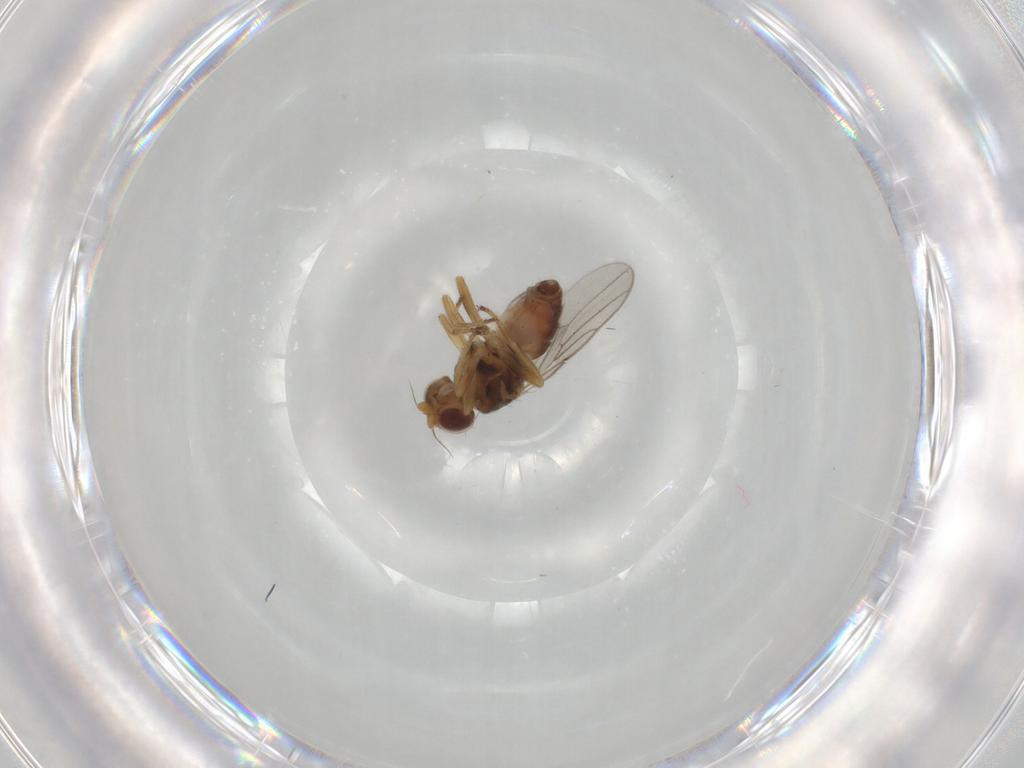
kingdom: Animalia
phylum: Arthropoda
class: Insecta
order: Diptera
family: Chloropidae
